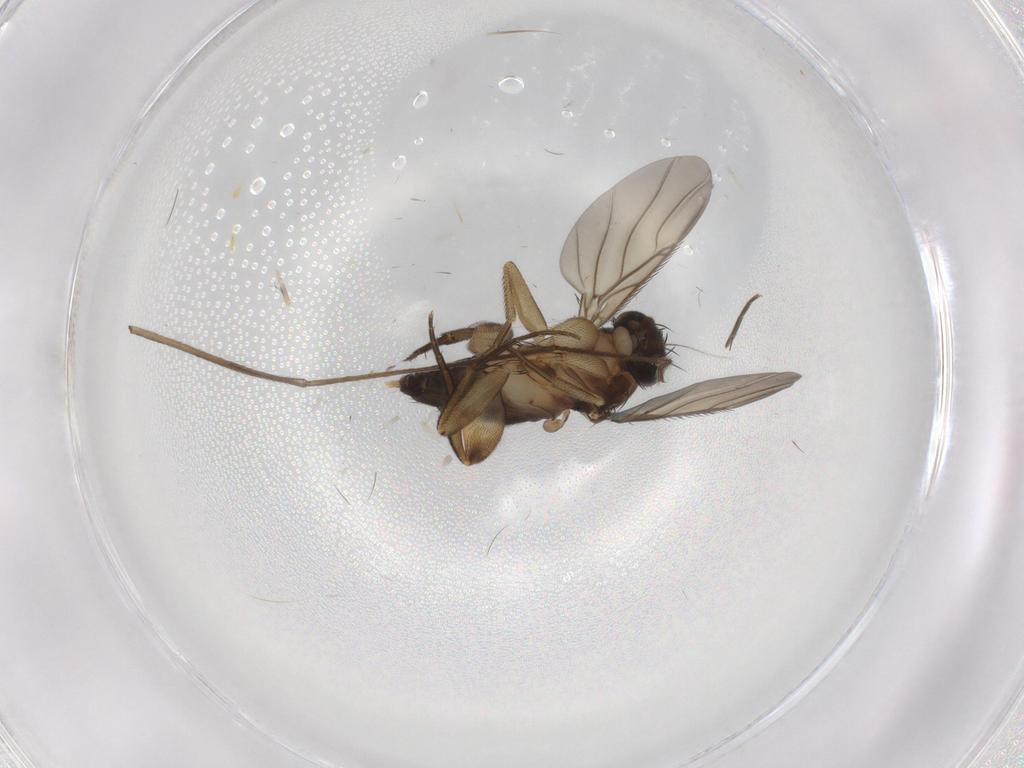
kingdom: Animalia
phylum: Arthropoda
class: Insecta
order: Diptera
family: Phoridae
